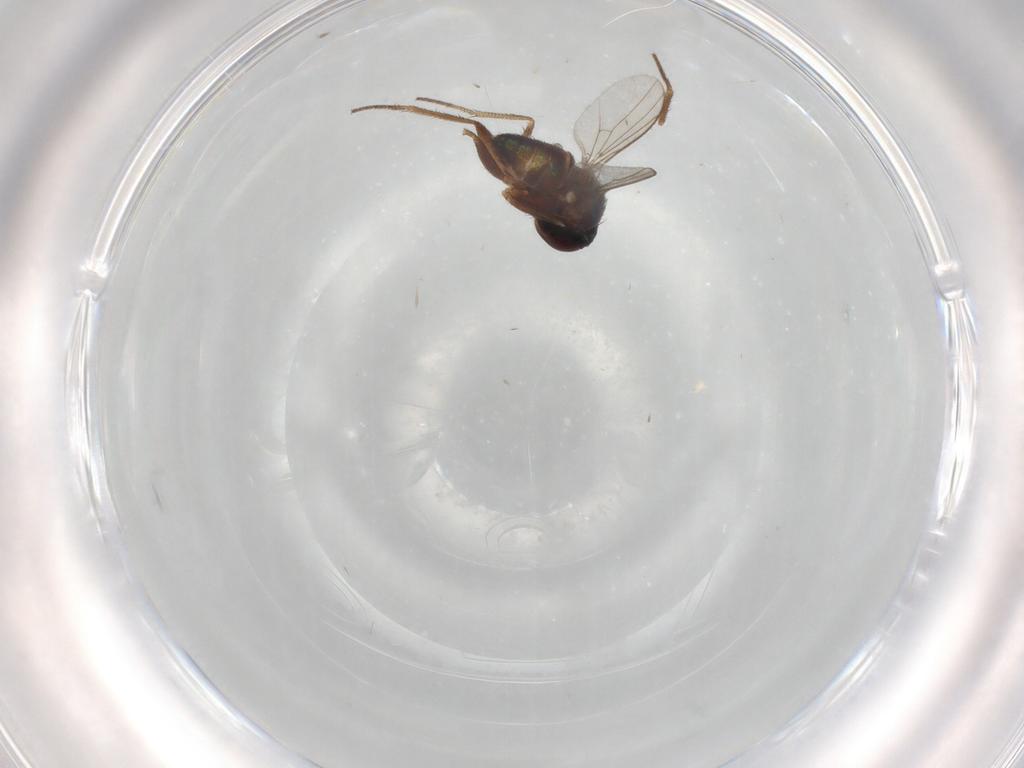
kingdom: Animalia
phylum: Arthropoda
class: Insecta
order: Diptera
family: Dolichopodidae
